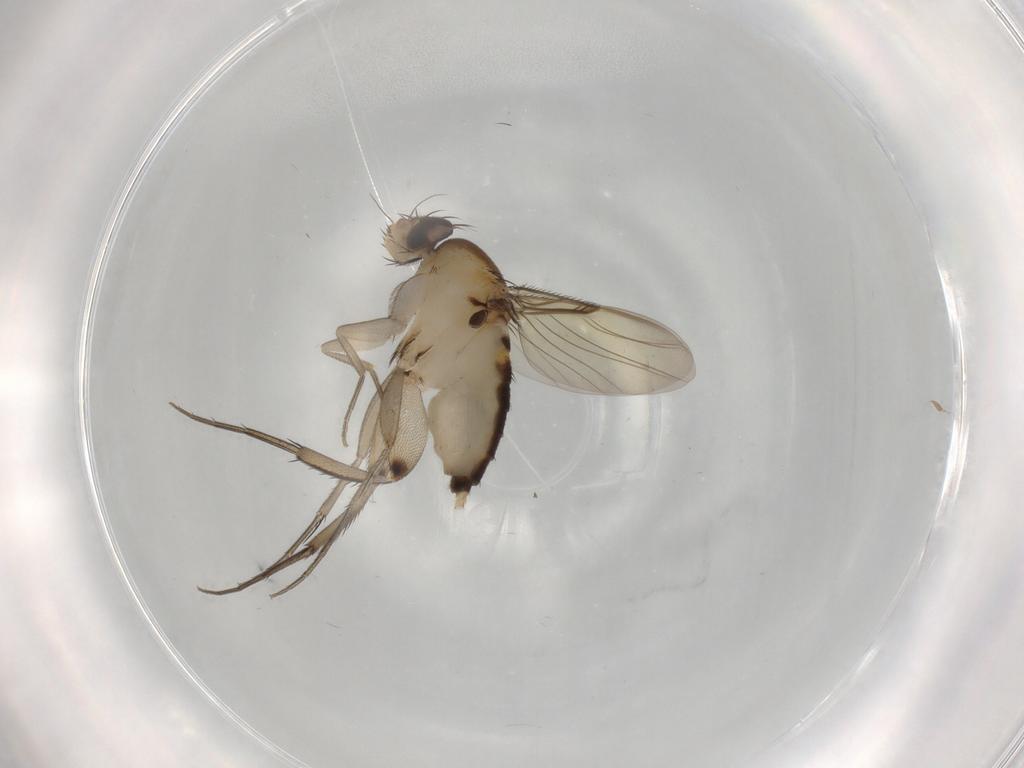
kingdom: Animalia
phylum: Arthropoda
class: Insecta
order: Diptera
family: Phoridae
